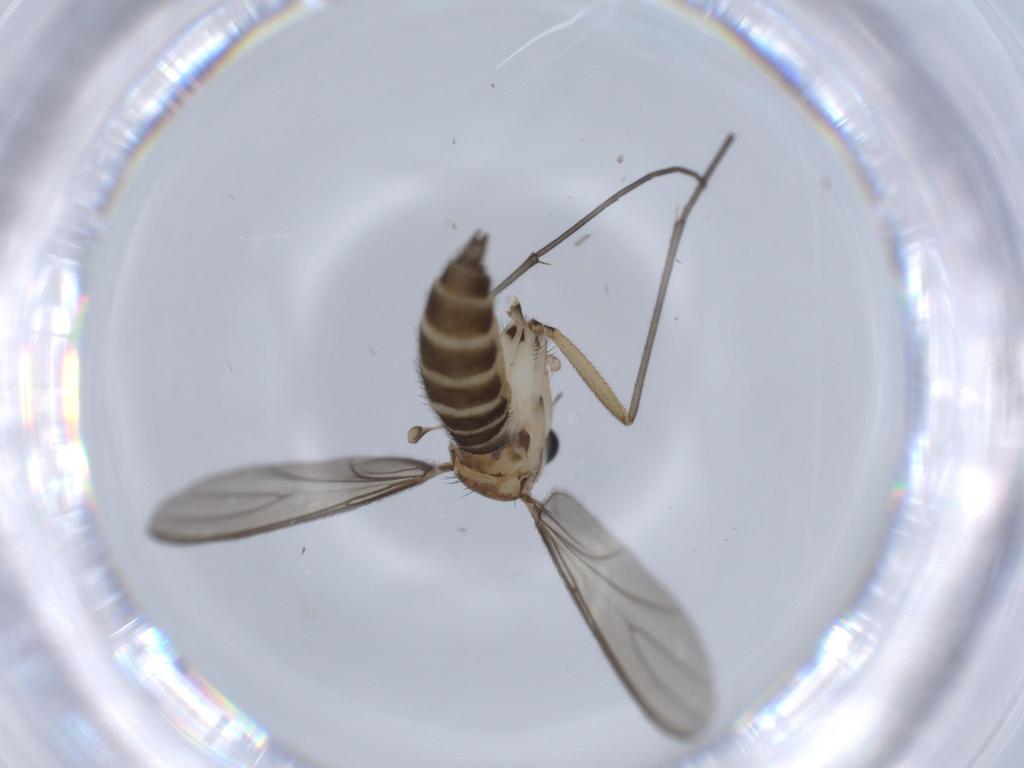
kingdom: Animalia
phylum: Arthropoda
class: Insecta
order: Diptera
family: Sciaridae
